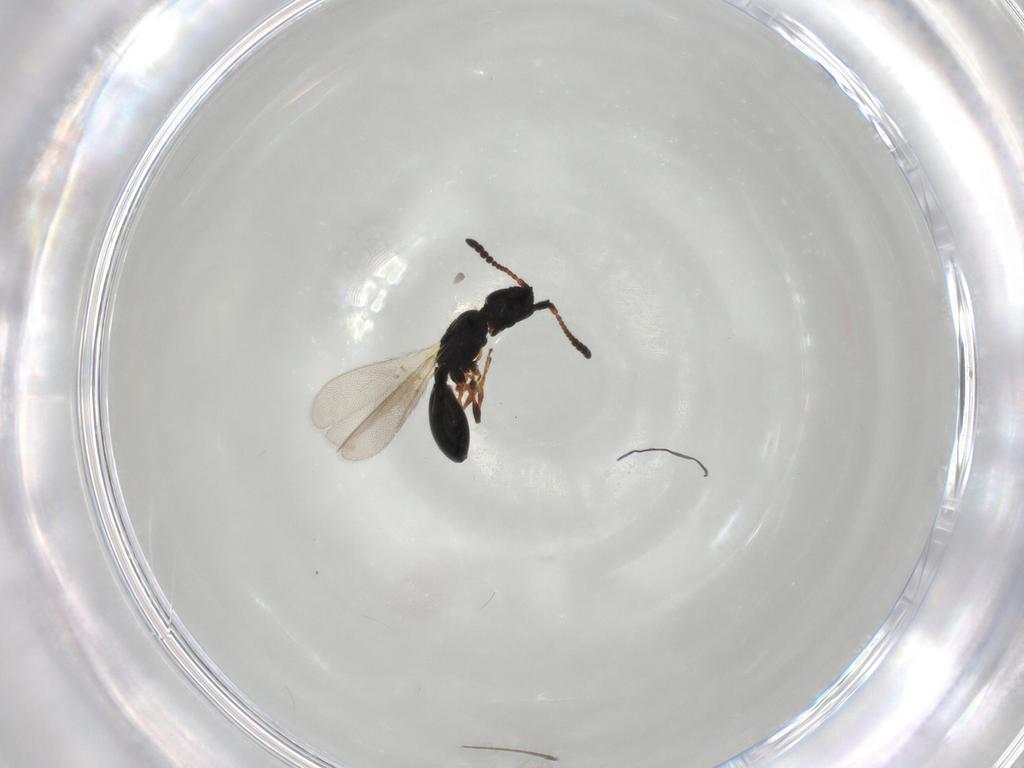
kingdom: Animalia
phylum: Arthropoda
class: Insecta
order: Hymenoptera
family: Diapriidae
